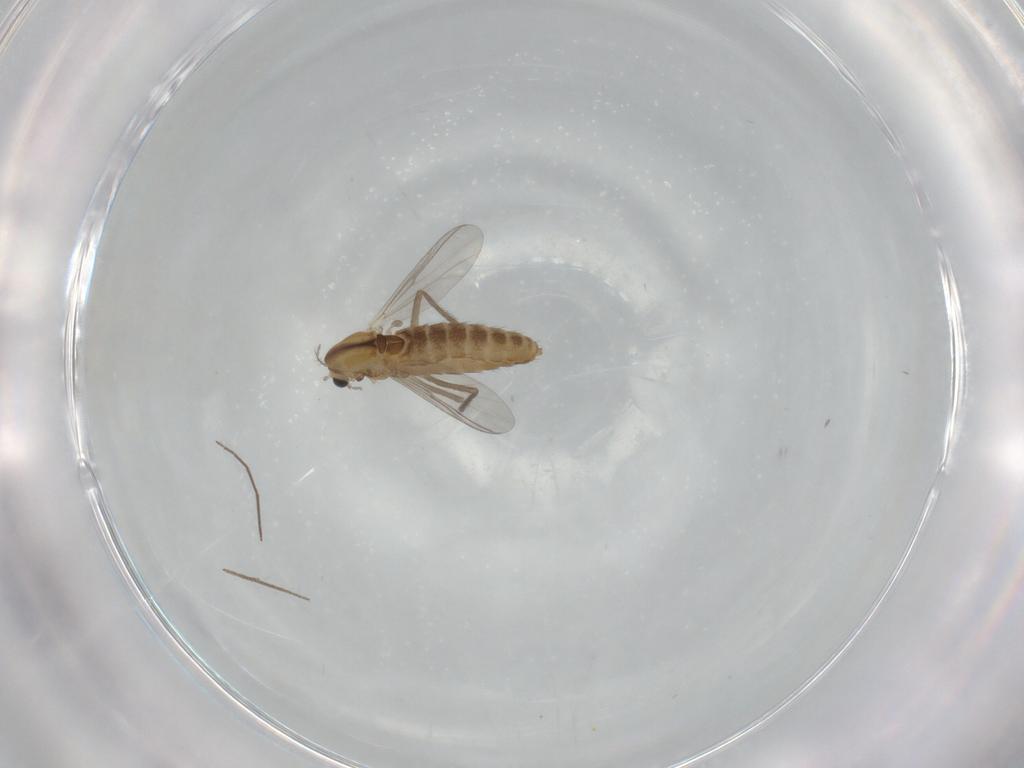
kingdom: Animalia
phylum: Arthropoda
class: Insecta
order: Diptera
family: Chironomidae
